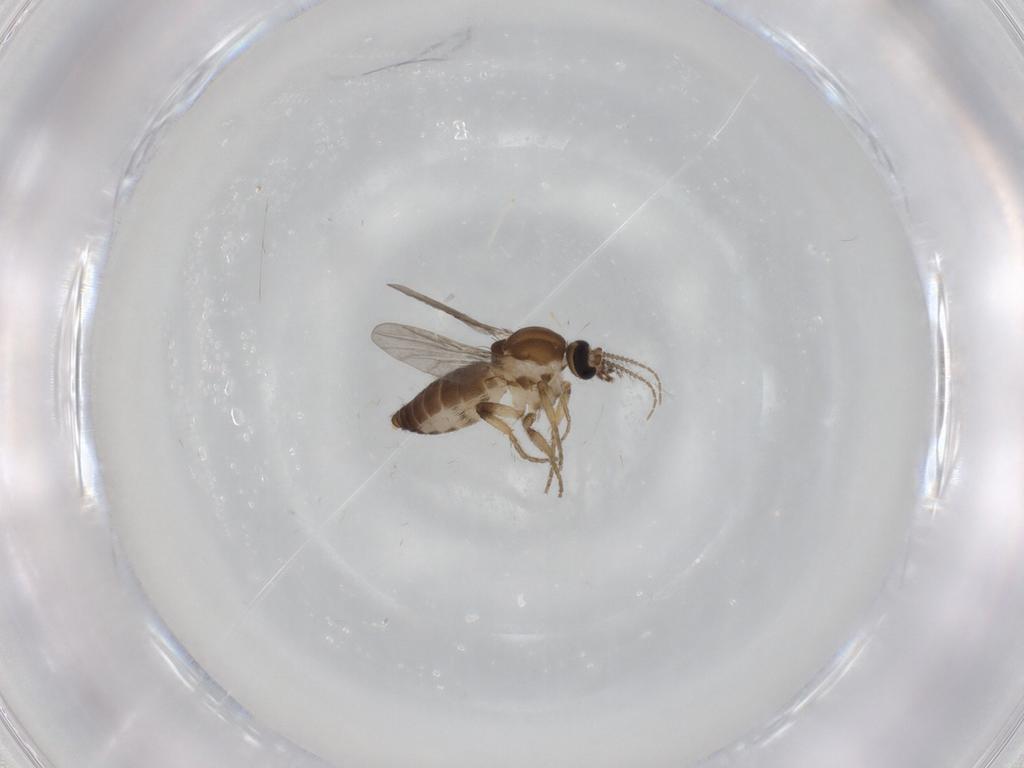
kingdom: Animalia
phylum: Arthropoda
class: Insecta
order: Diptera
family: Ceratopogonidae
